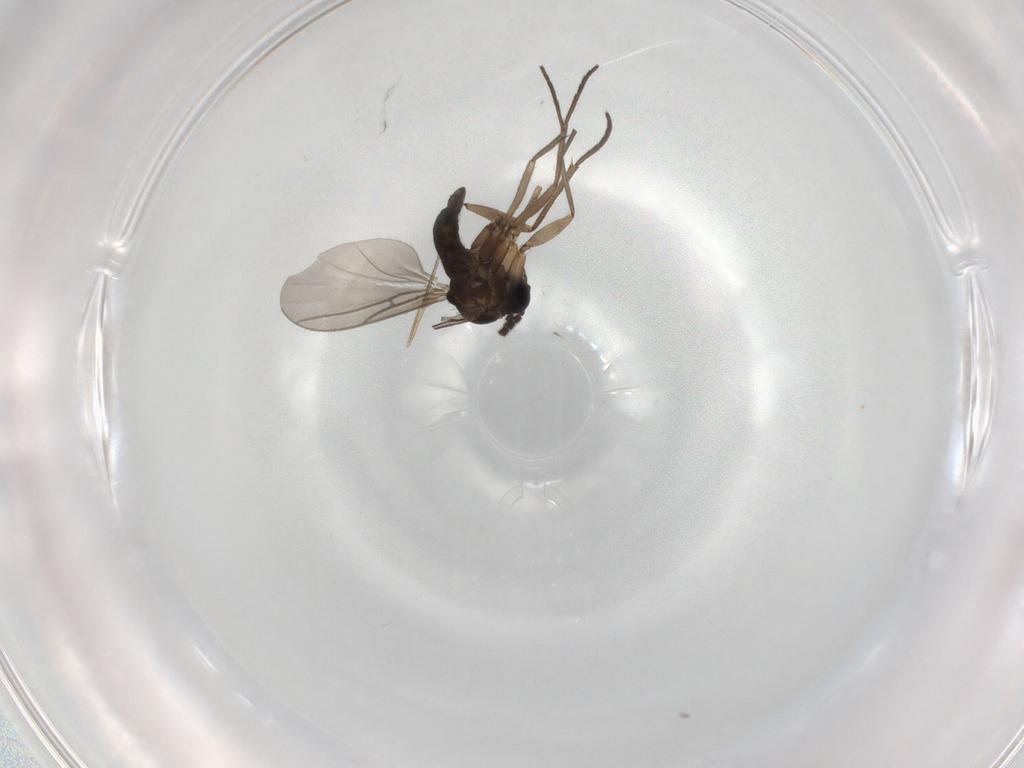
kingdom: Animalia
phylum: Arthropoda
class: Insecta
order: Diptera
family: Sciaridae
